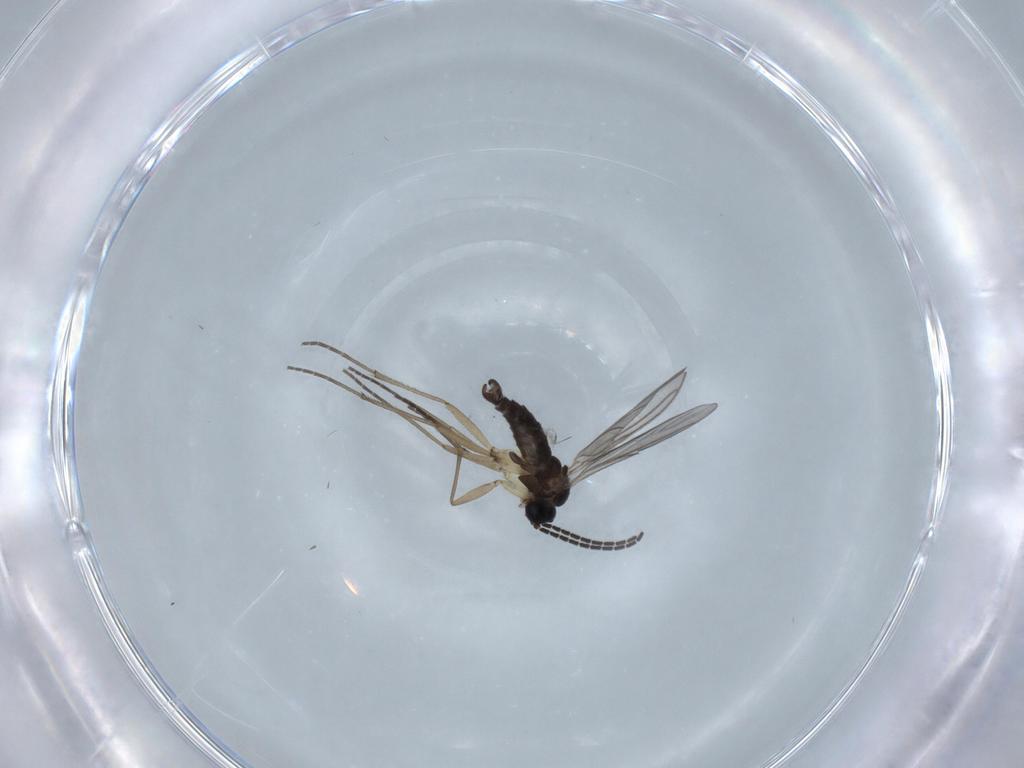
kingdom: Animalia
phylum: Arthropoda
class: Insecta
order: Diptera
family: Sciaridae
